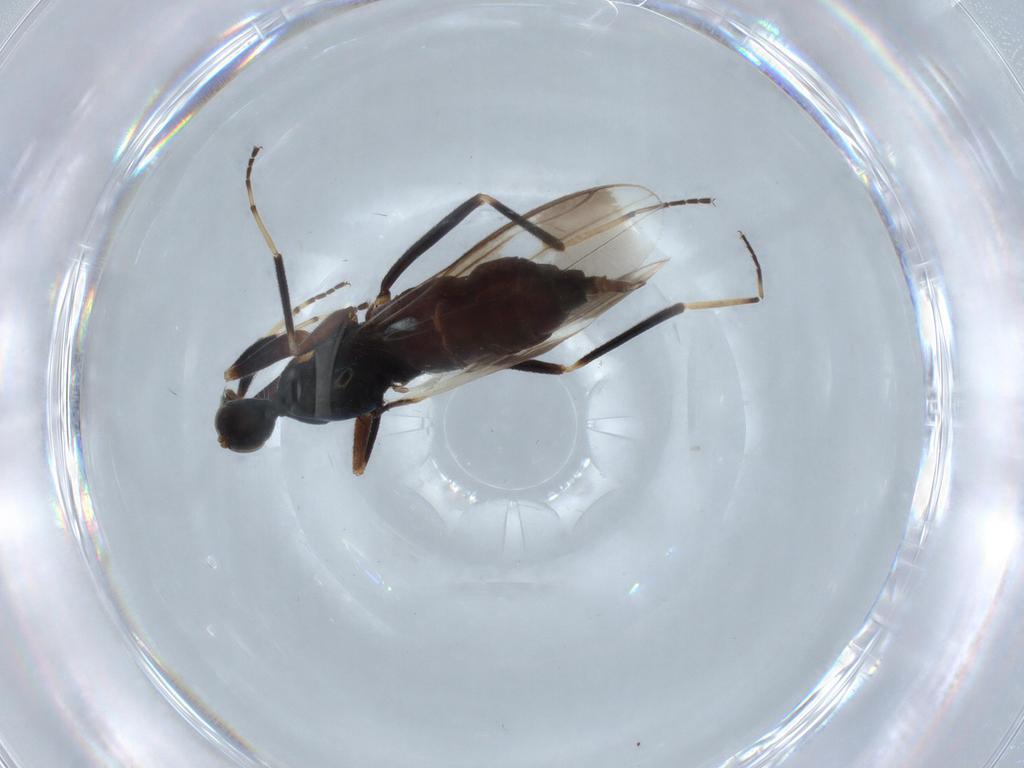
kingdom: Animalia
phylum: Arthropoda
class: Insecta
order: Diptera
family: Hybotidae
